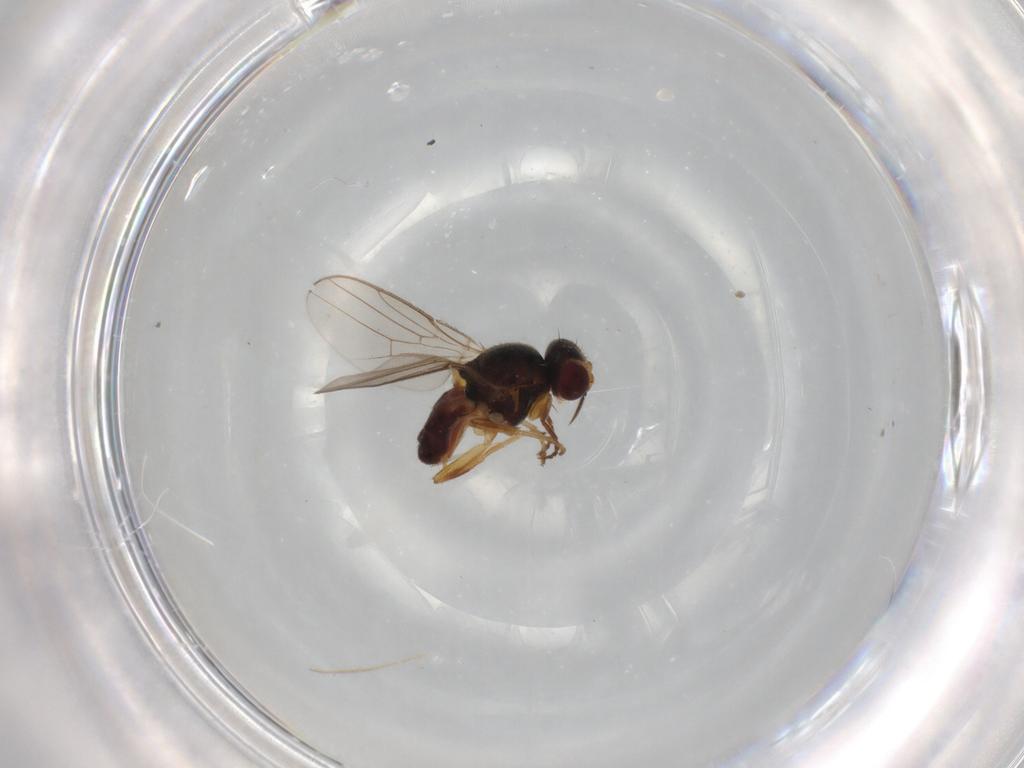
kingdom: Animalia
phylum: Arthropoda
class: Insecta
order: Diptera
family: Chloropidae
